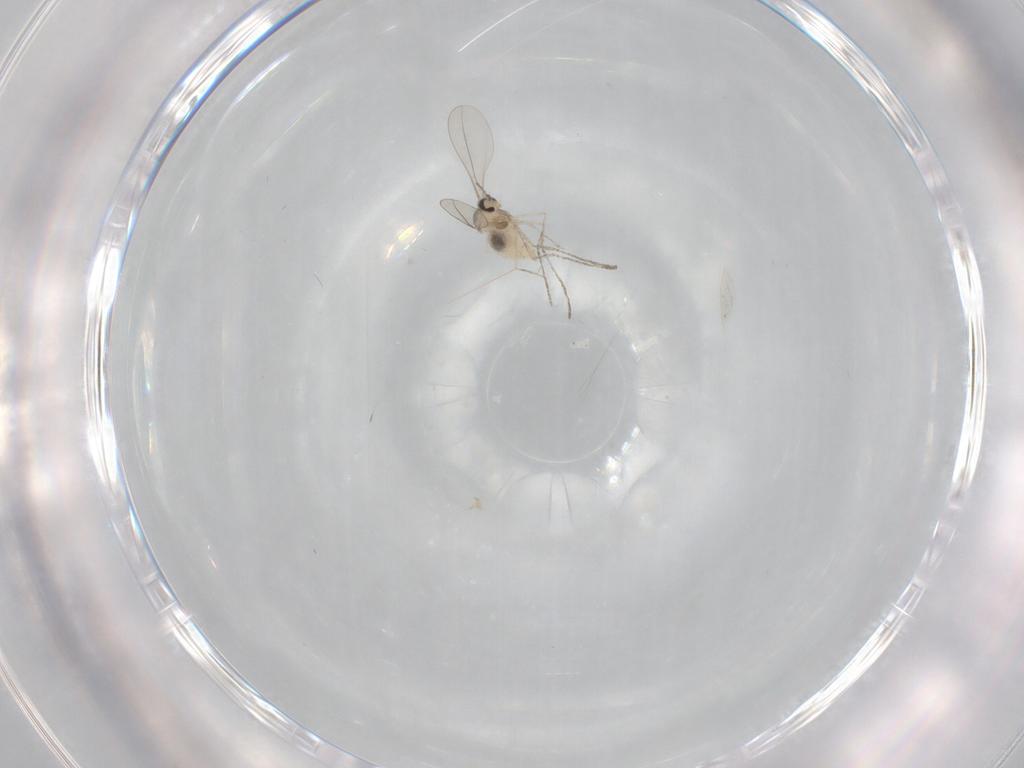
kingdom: Animalia
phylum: Arthropoda
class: Insecta
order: Diptera
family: Cecidomyiidae
